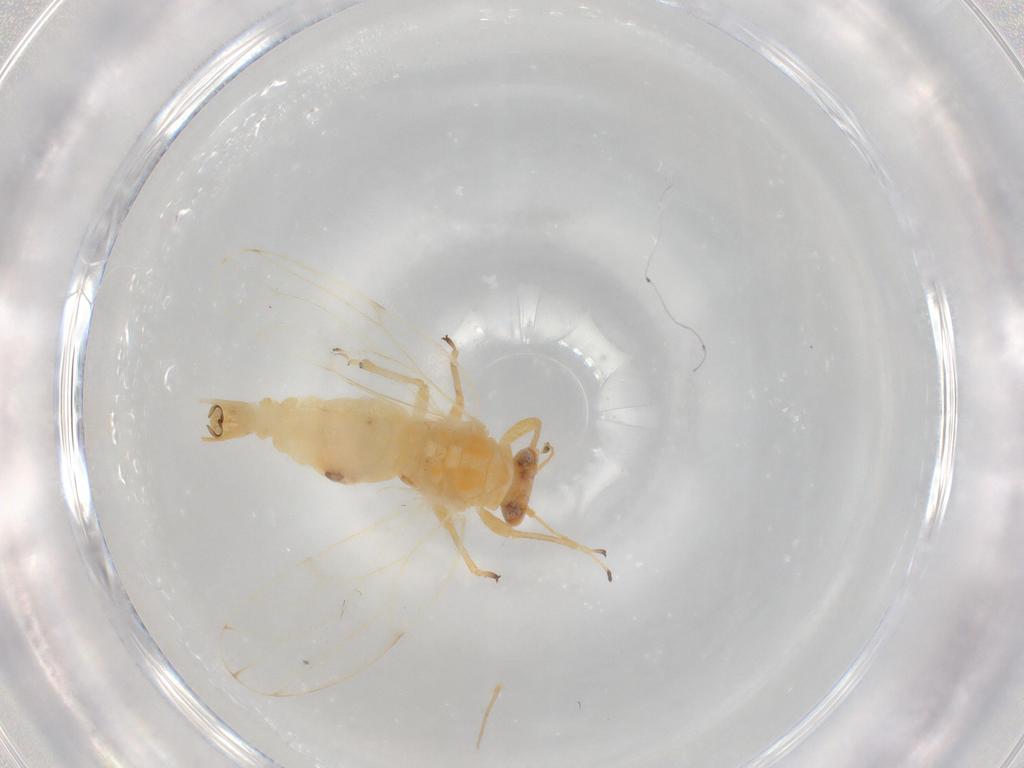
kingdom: Animalia
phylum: Arthropoda
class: Insecta
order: Hemiptera
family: Aphalaridae
